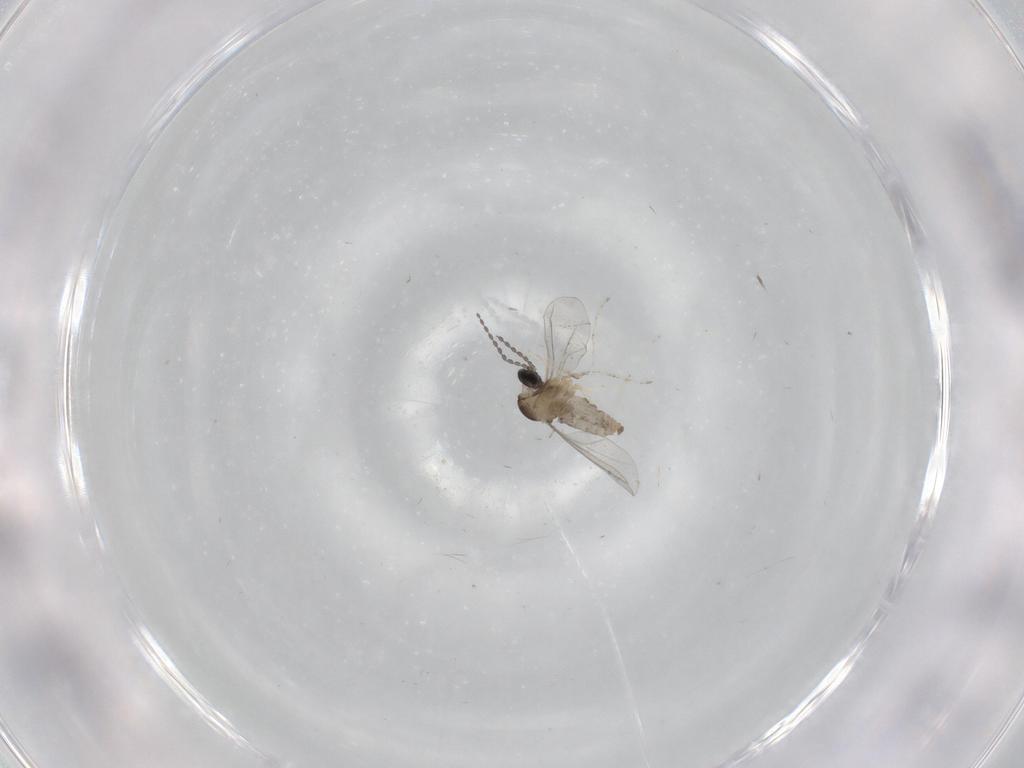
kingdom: Animalia
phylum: Arthropoda
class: Insecta
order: Diptera
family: Cecidomyiidae
